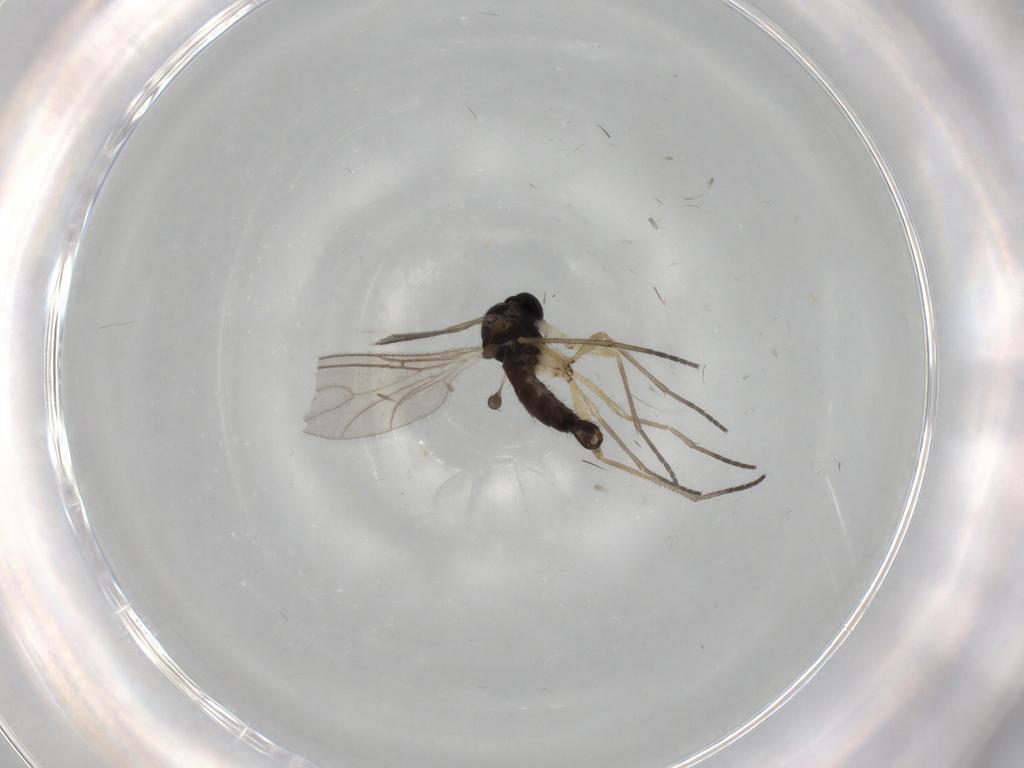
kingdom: Animalia
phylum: Arthropoda
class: Insecta
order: Diptera
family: Sciaridae
